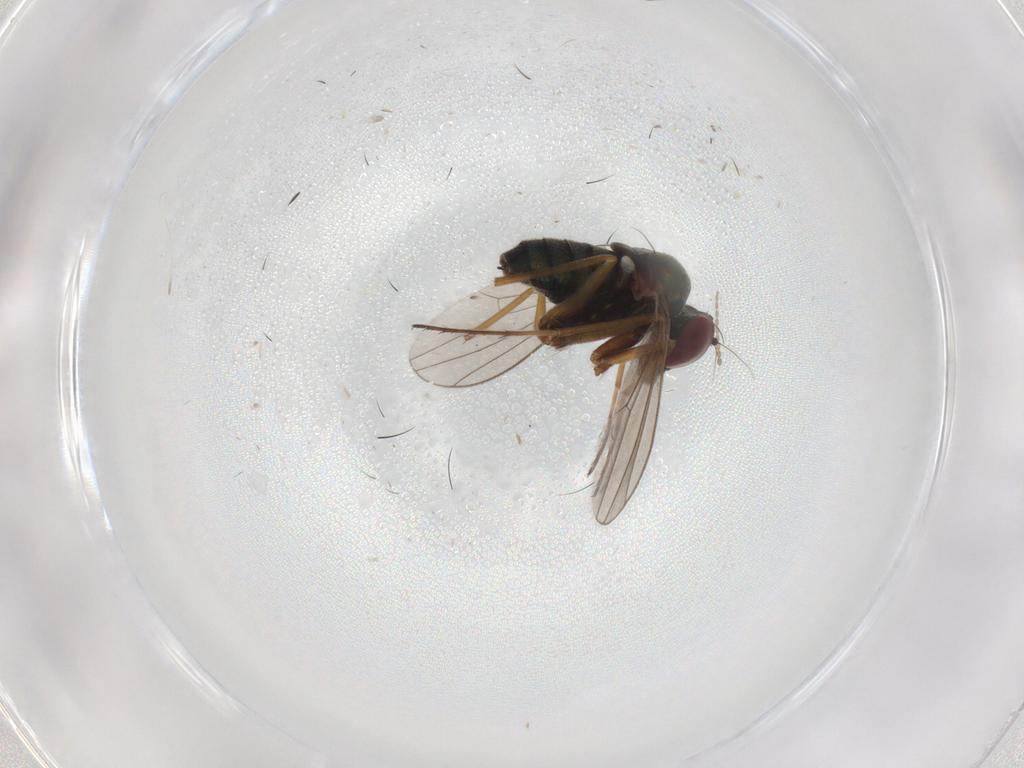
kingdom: Animalia
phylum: Arthropoda
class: Insecta
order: Diptera
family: Dolichopodidae
